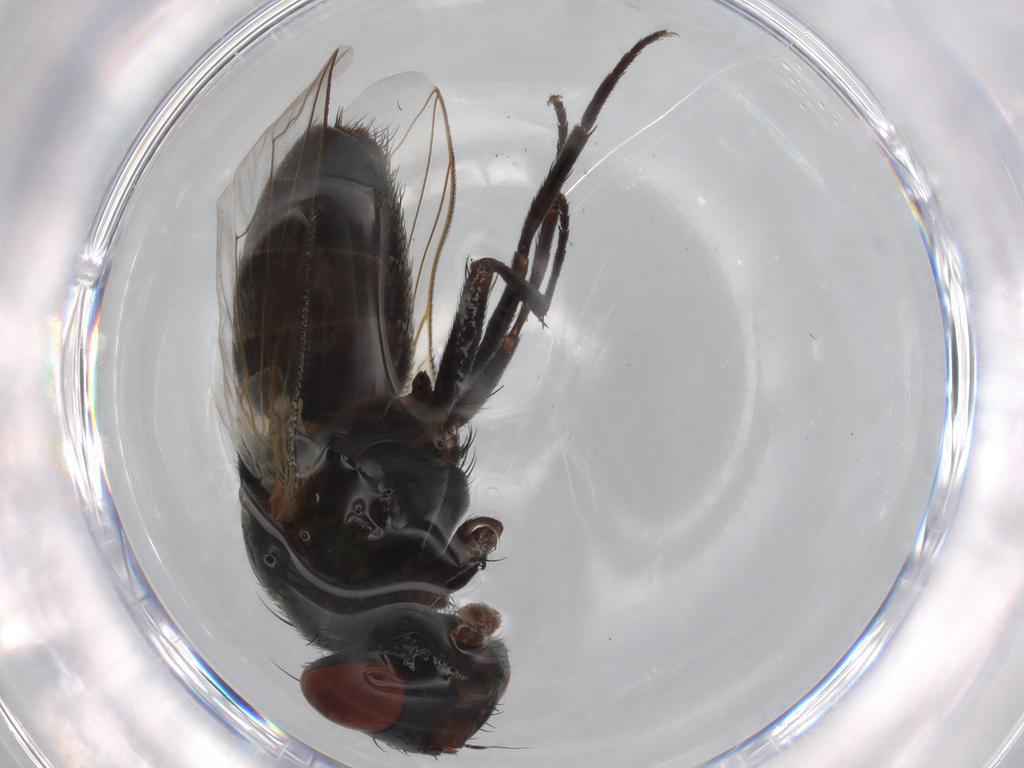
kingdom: Animalia
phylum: Arthropoda
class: Insecta
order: Diptera
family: Sarcophagidae
